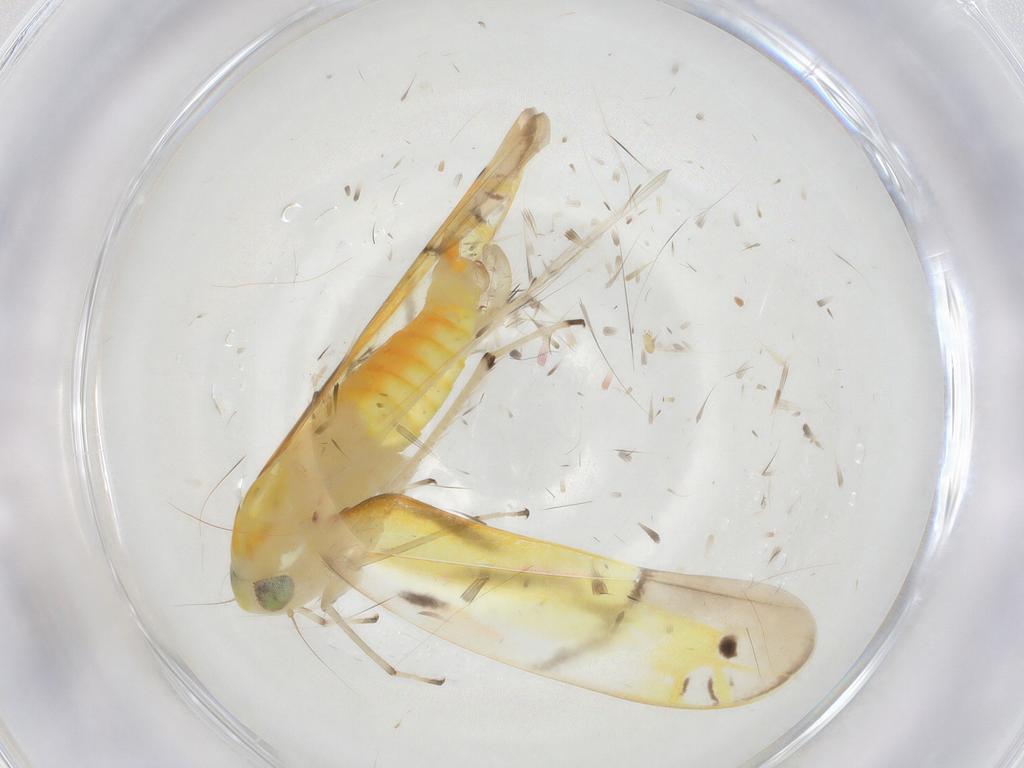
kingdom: Animalia
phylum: Arthropoda
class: Insecta
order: Hemiptera
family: Cicadellidae
